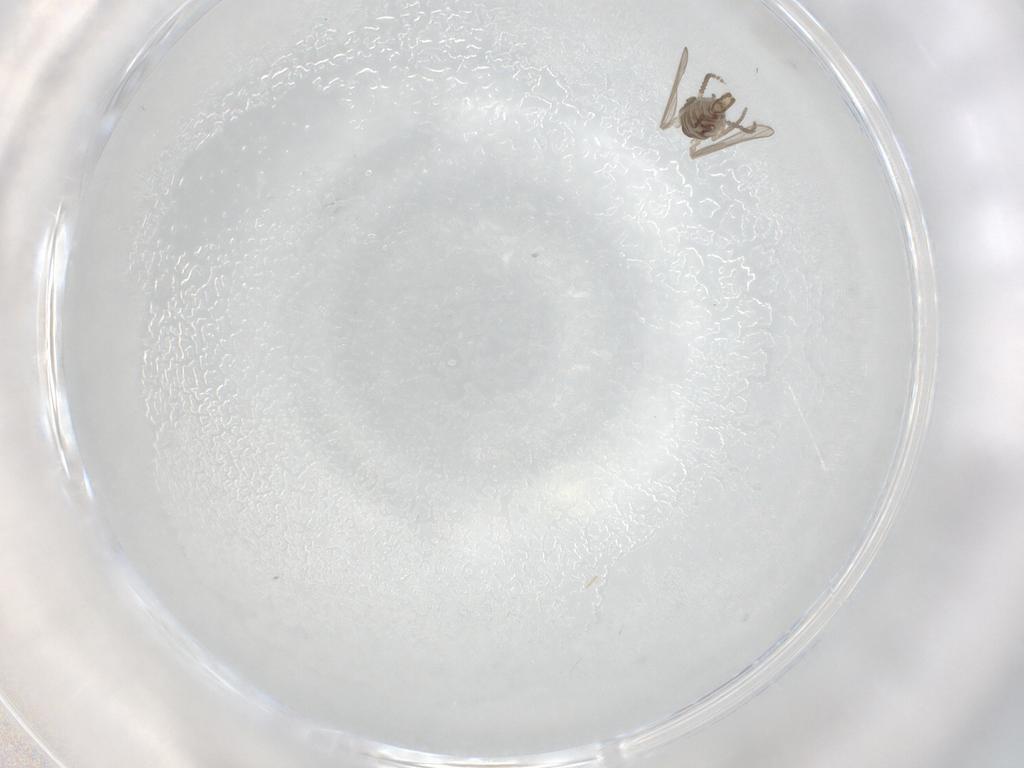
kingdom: Animalia
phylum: Arthropoda
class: Insecta
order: Diptera
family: Psychodidae
